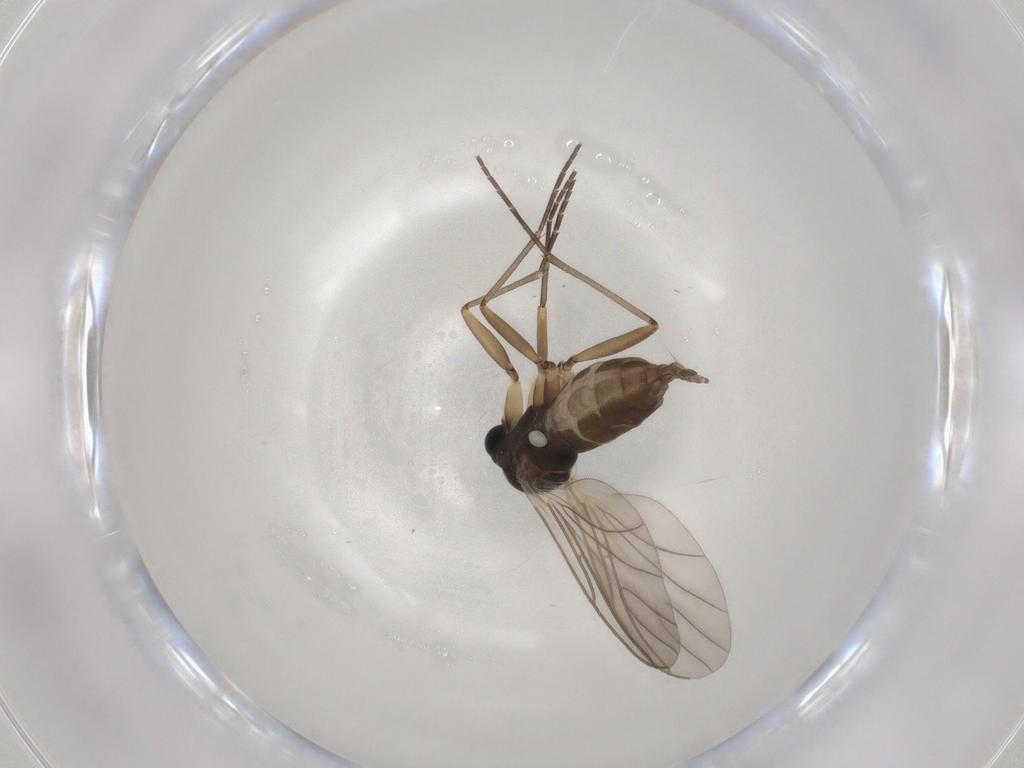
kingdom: Animalia
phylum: Arthropoda
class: Insecta
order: Diptera
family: Sciaridae
